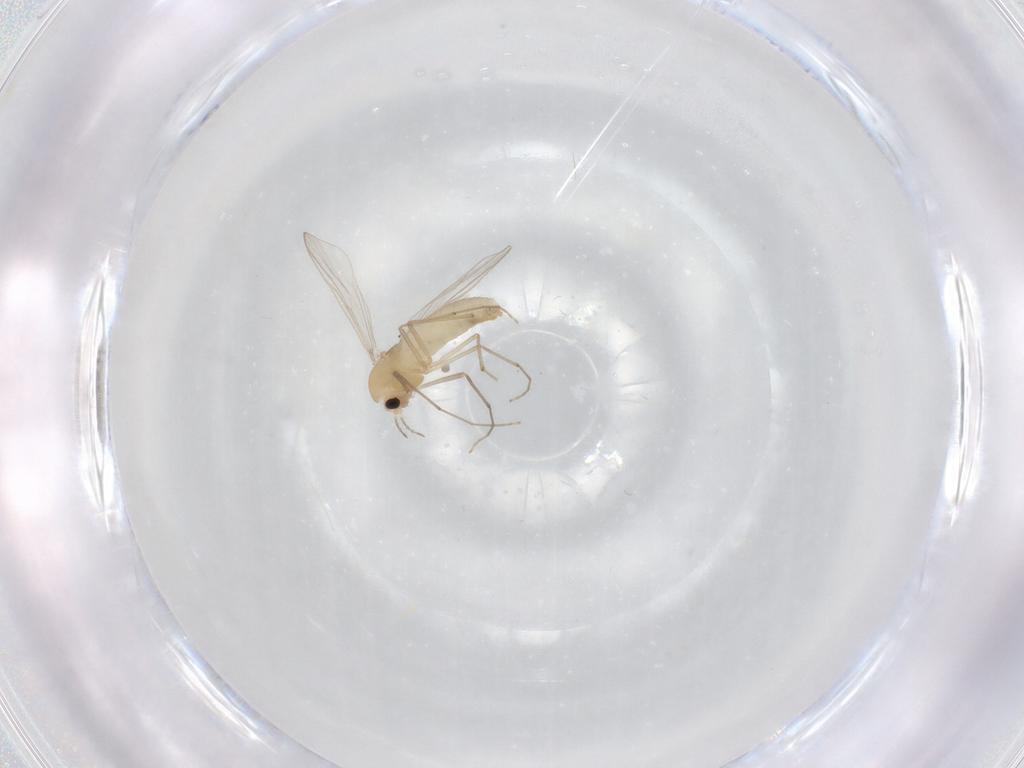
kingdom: Animalia
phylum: Arthropoda
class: Insecta
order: Diptera
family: Chironomidae
